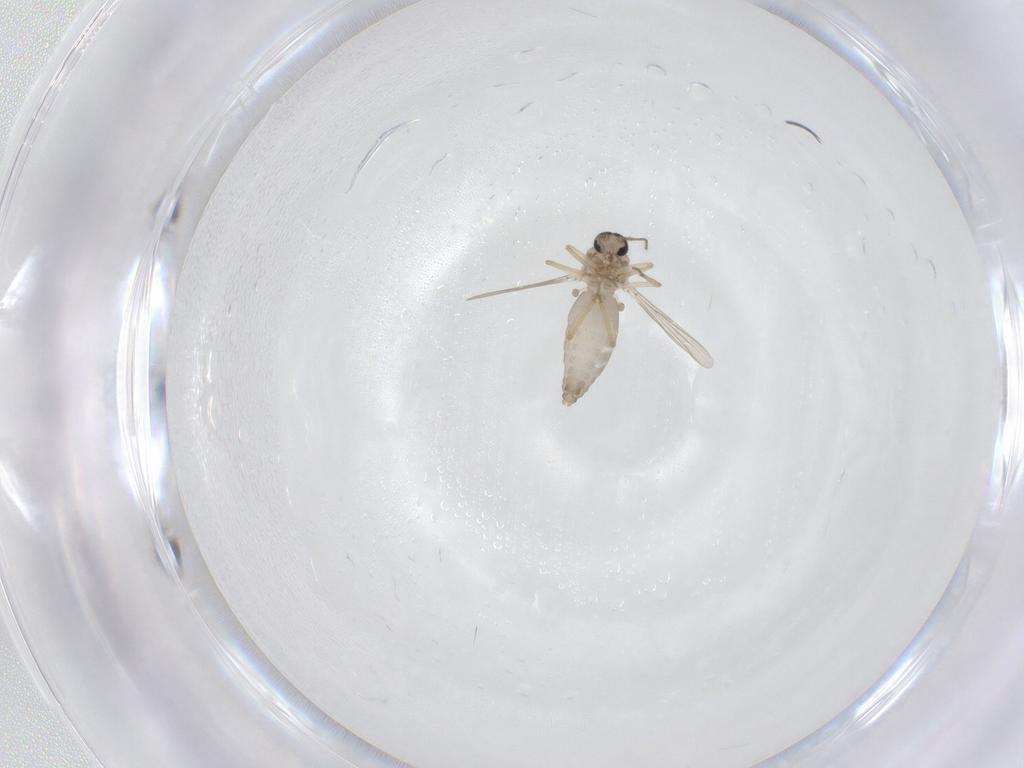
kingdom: Animalia
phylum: Arthropoda
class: Insecta
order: Diptera
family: Ceratopogonidae
